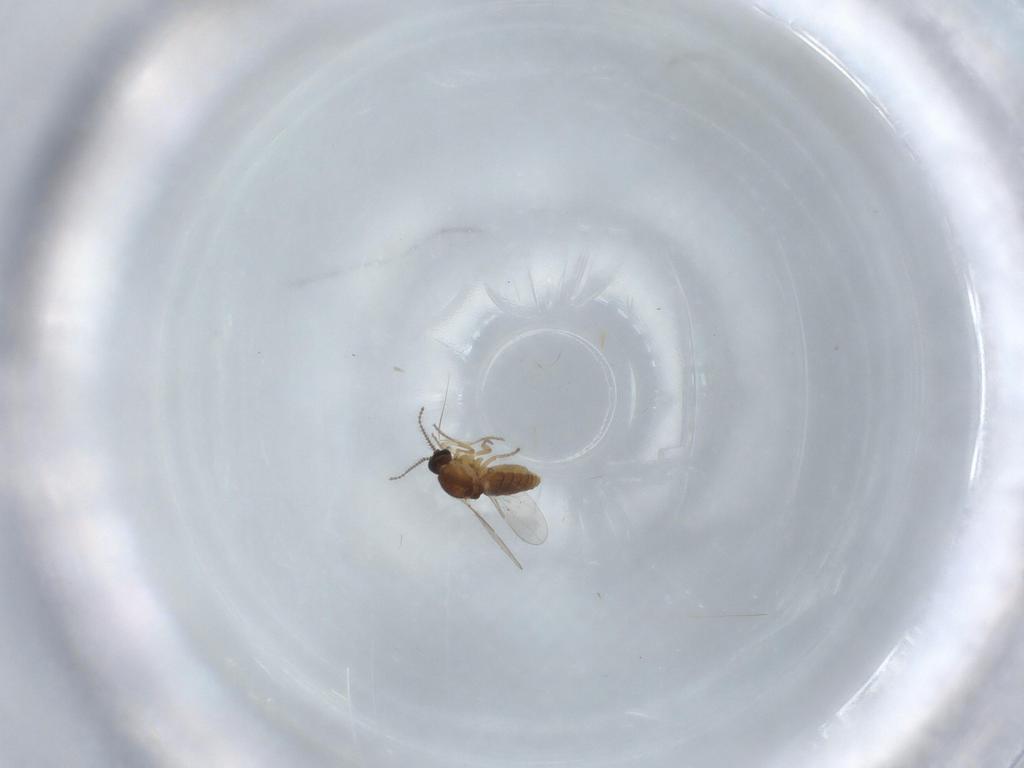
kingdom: Animalia
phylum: Arthropoda
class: Insecta
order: Diptera
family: Ceratopogonidae
